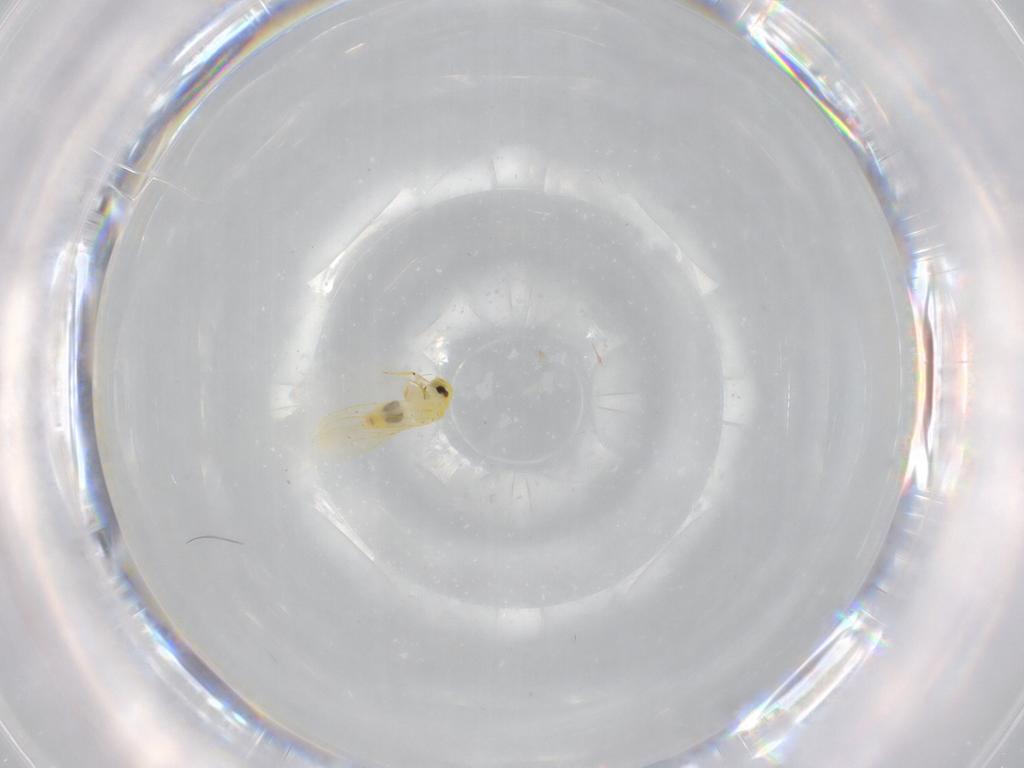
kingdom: Animalia
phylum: Arthropoda
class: Insecta
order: Hemiptera
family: Aleyrodidae
